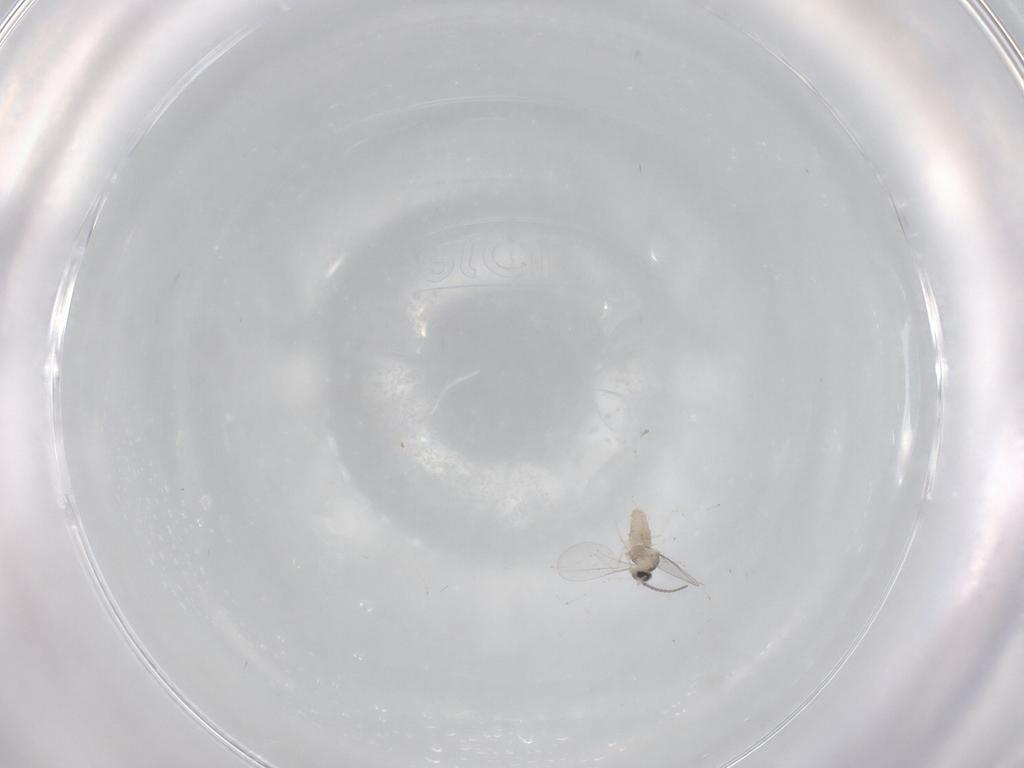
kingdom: Animalia
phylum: Arthropoda
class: Insecta
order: Diptera
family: Cecidomyiidae
